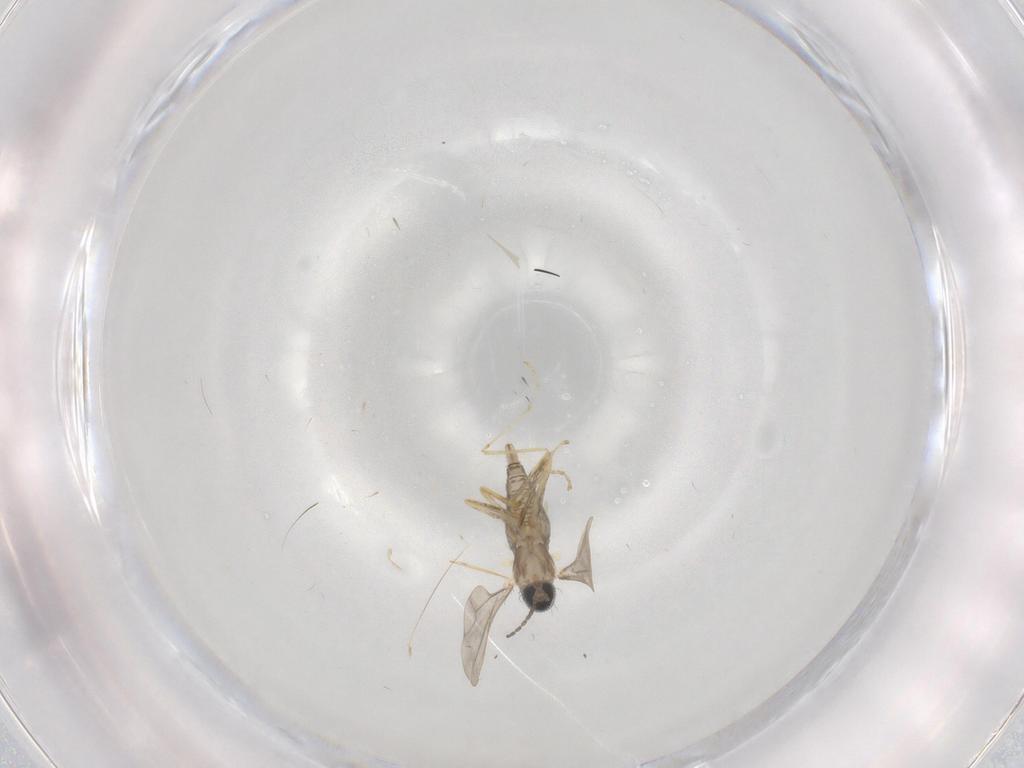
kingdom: Animalia
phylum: Arthropoda
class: Insecta
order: Diptera
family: Cecidomyiidae
